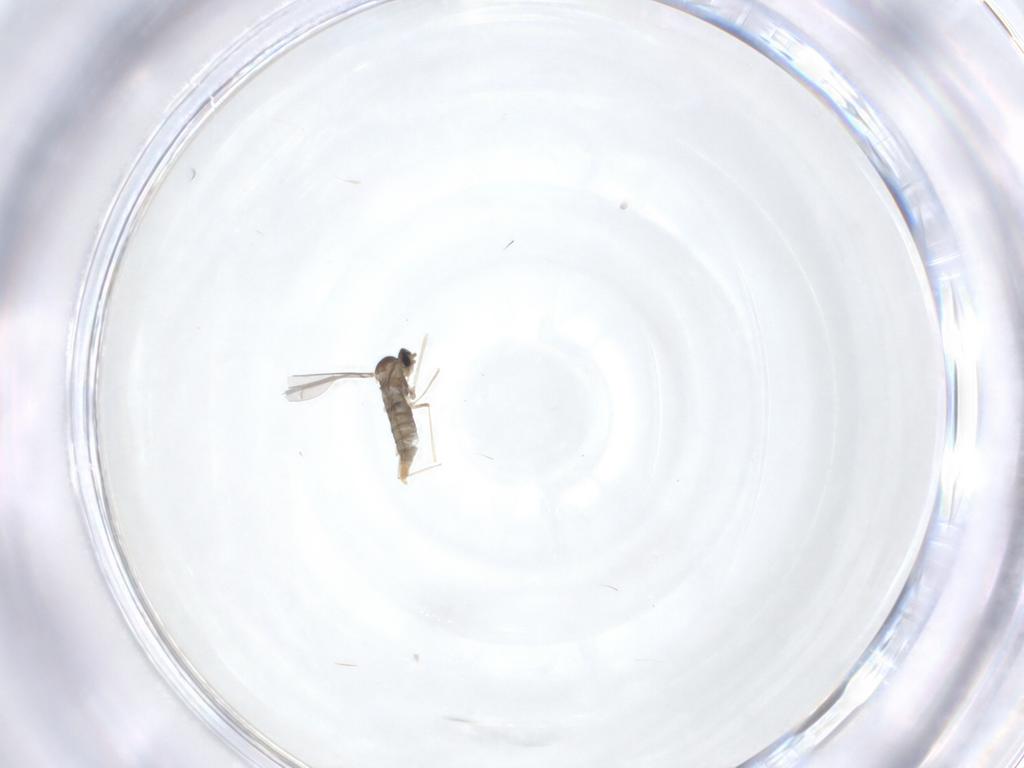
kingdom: Animalia
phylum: Arthropoda
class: Insecta
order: Diptera
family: Cecidomyiidae
